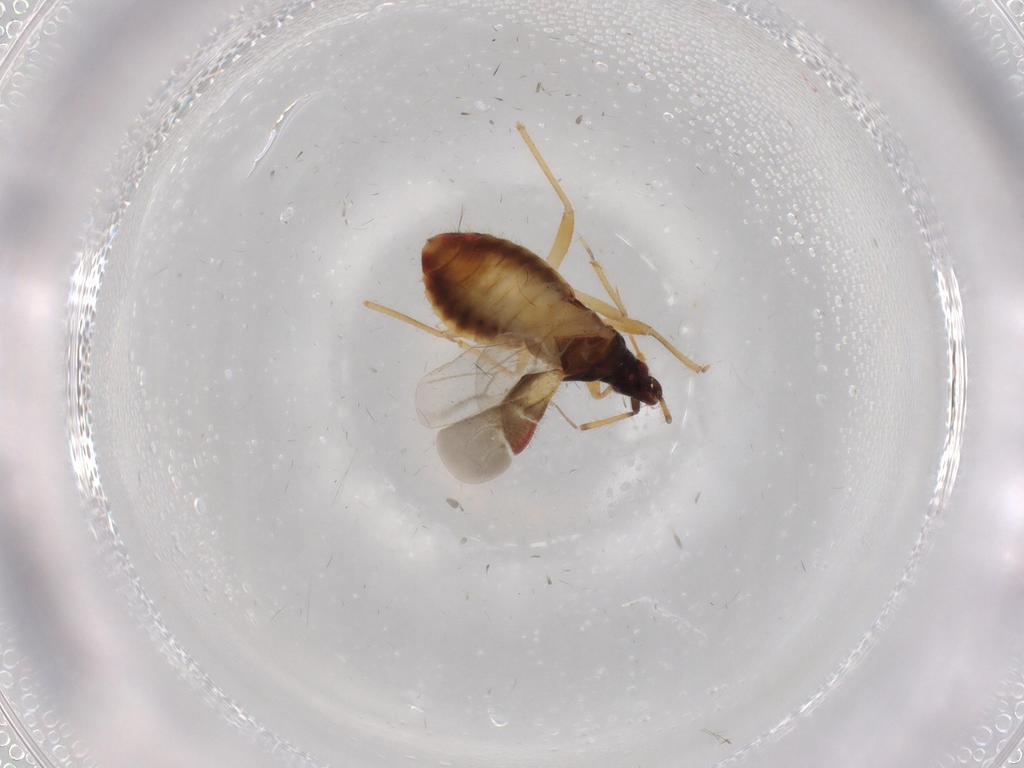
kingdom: Animalia
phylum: Arthropoda
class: Insecta
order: Hemiptera
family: Lasiochilidae
